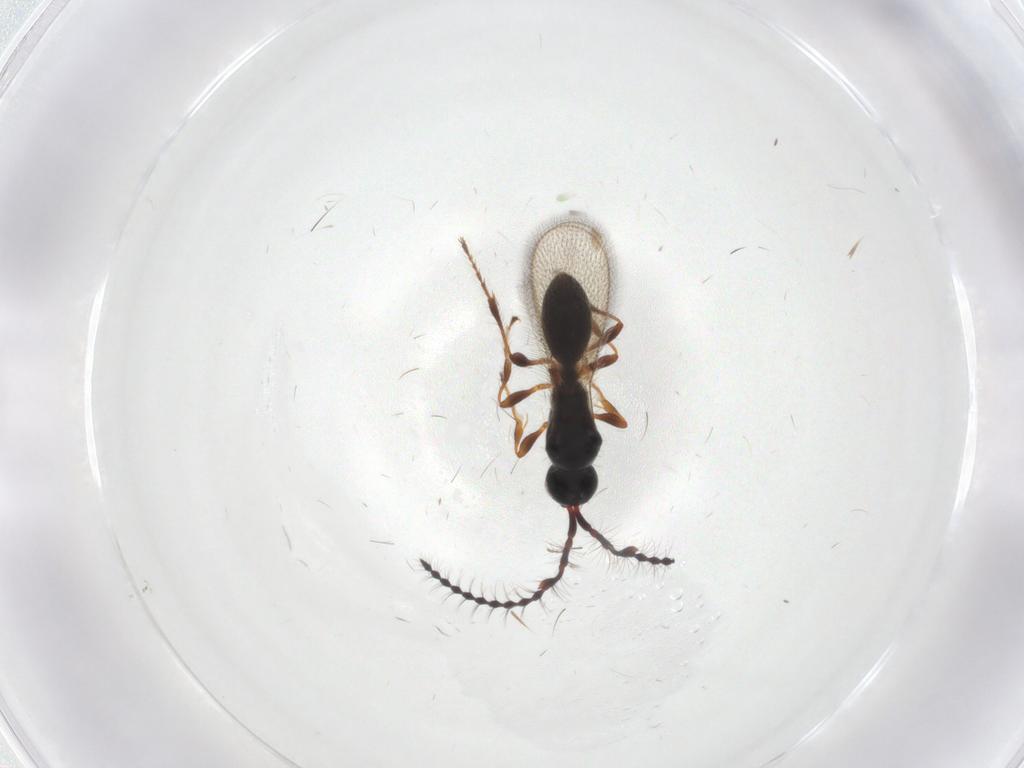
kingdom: Animalia
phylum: Arthropoda
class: Insecta
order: Hymenoptera
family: Diapriidae
